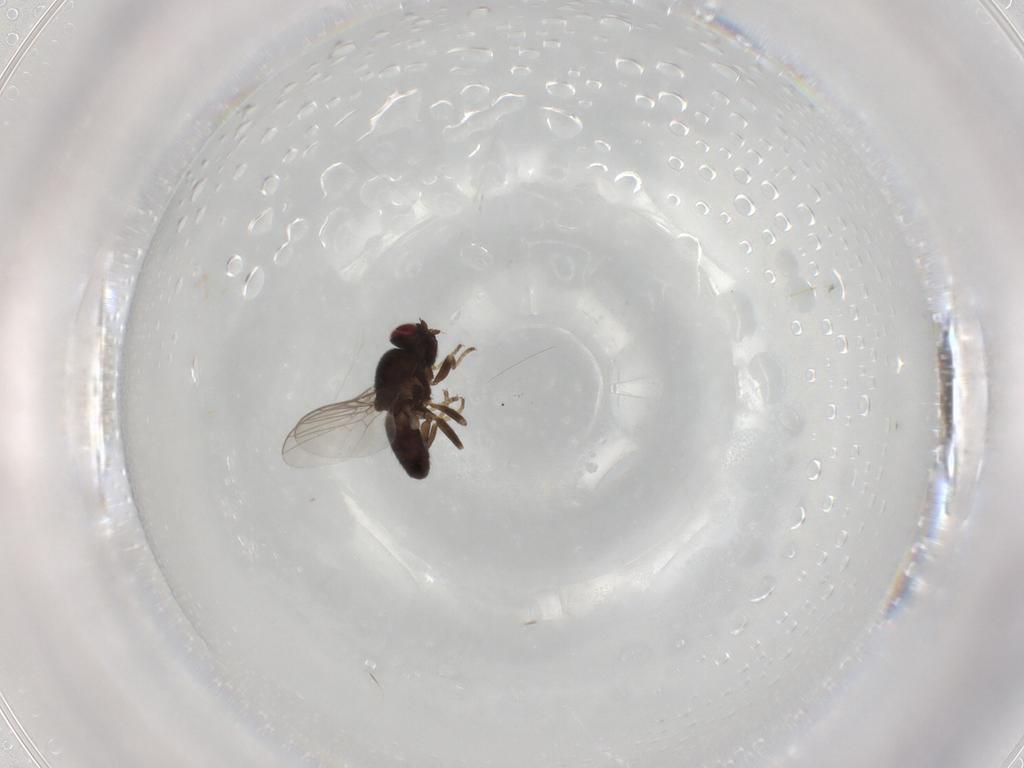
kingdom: Animalia
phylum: Arthropoda
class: Insecta
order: Diptera
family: Chloropidae
